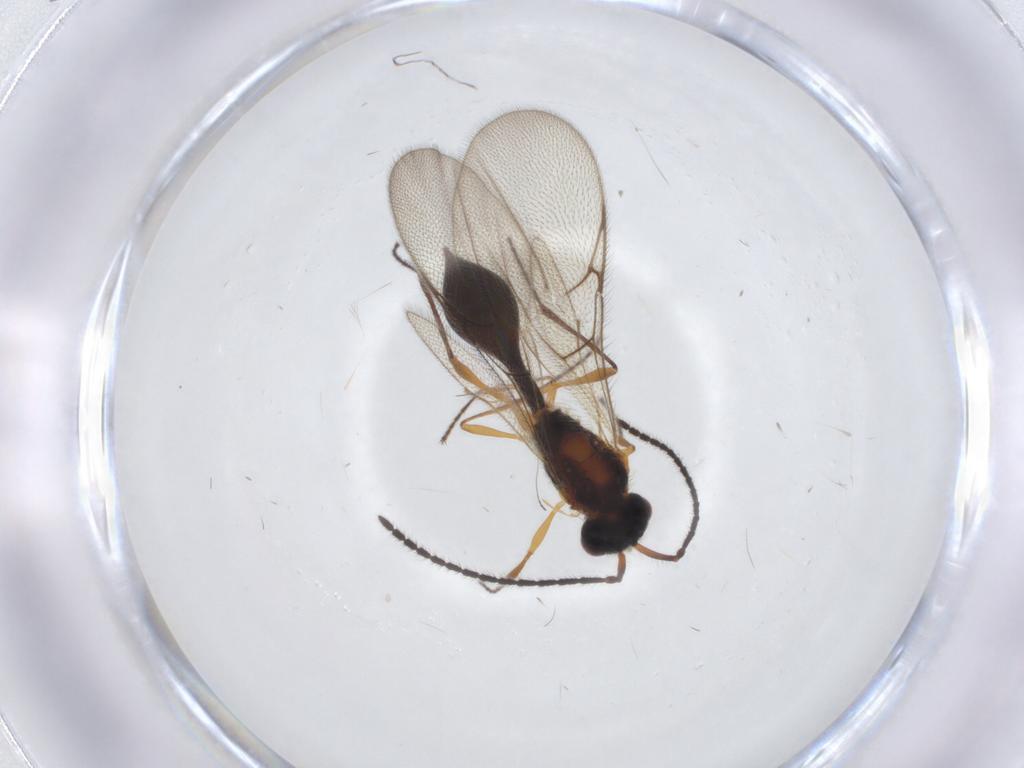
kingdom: Animalia
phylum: Arthropoda
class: Insecta
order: Hymenoptera
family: Diapriidae
